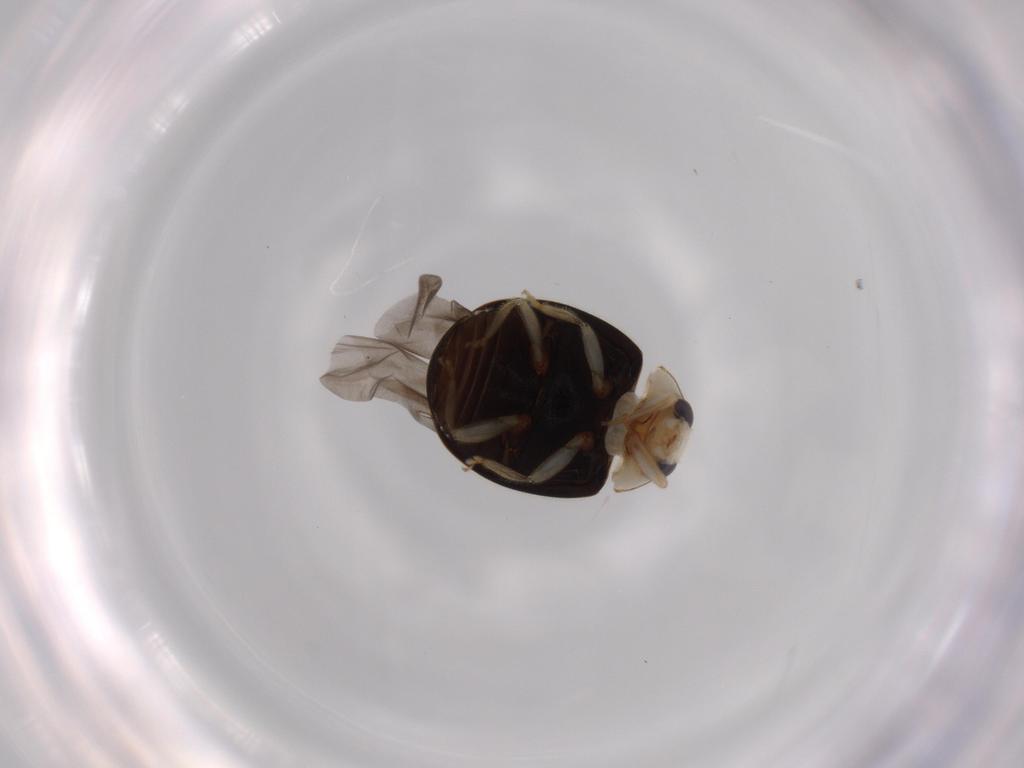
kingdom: Animalia
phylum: Arthropoda
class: Insecta
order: Coleoptera
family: Coccinellidae
